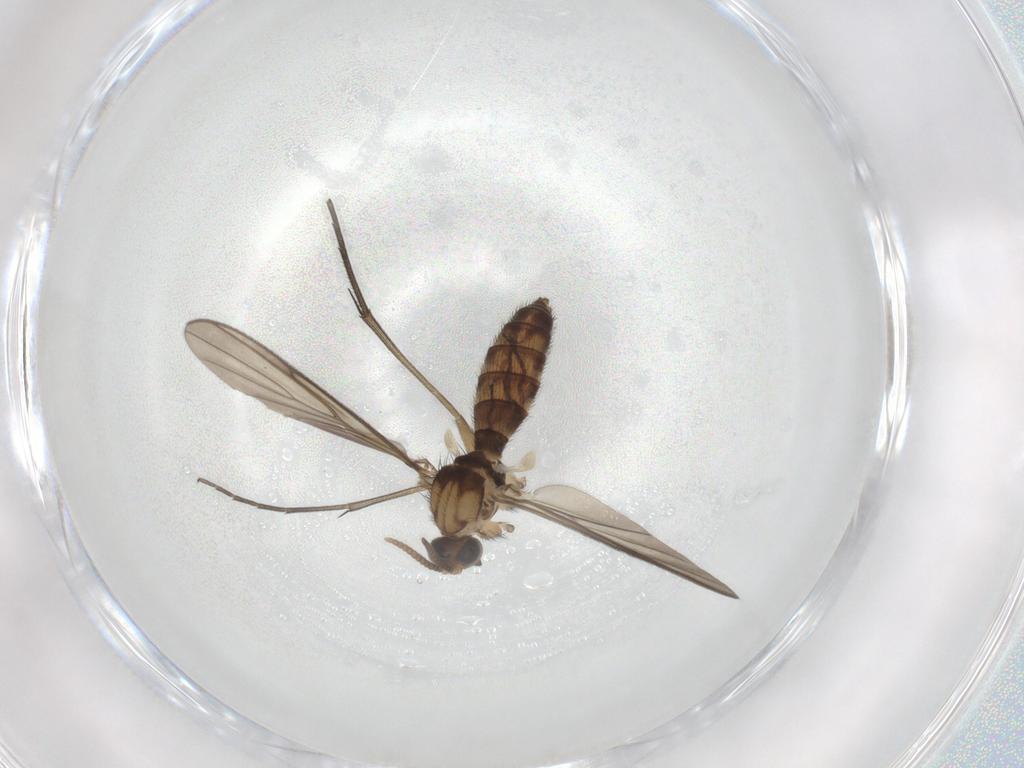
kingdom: Animalia
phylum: Arthropoda
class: Insecta
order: Diptera
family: Keroplatidae
